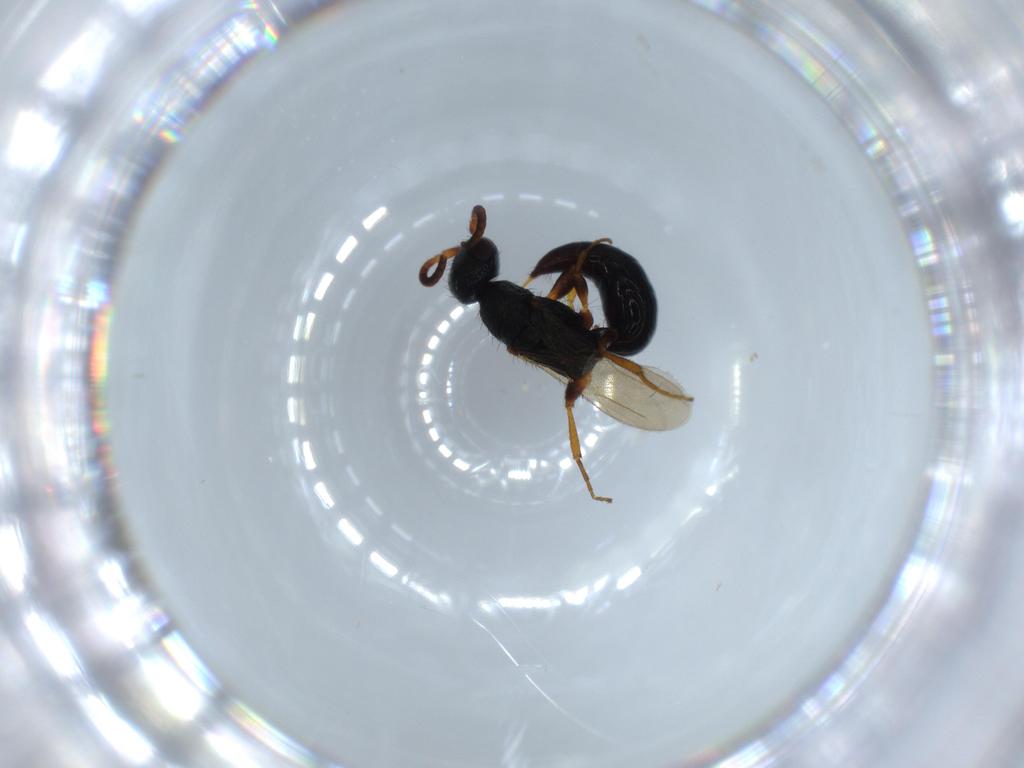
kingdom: Animalia
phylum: Arthropoda
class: Insecta
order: Hymenoptera
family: Bethylidae
